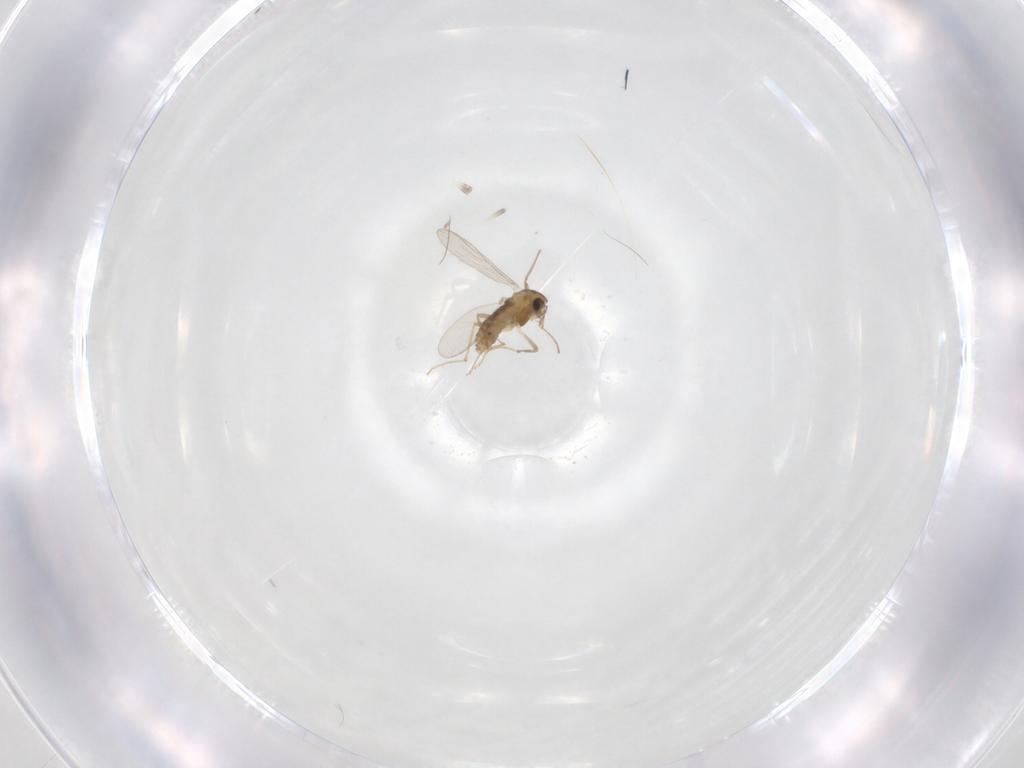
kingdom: Animalia
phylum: Arthropoda
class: Insecta
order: Diptera
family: Chironomidae
